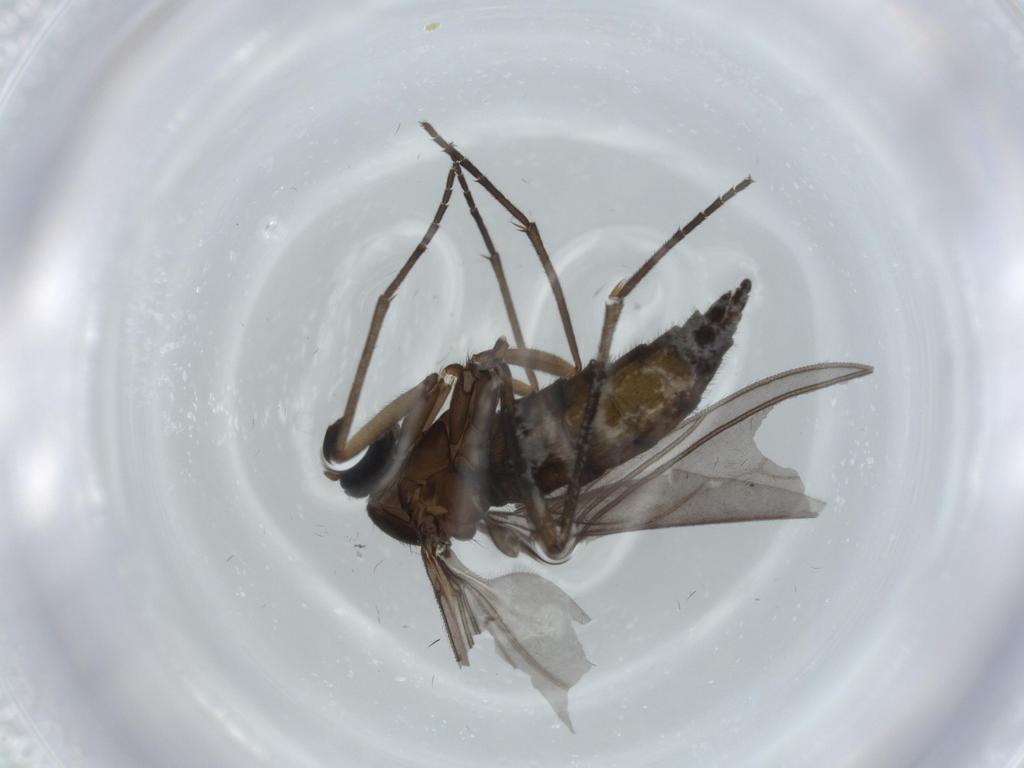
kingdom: Animalia
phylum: Arthropoda
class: Insecta
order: Diptera
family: Sciaridae
